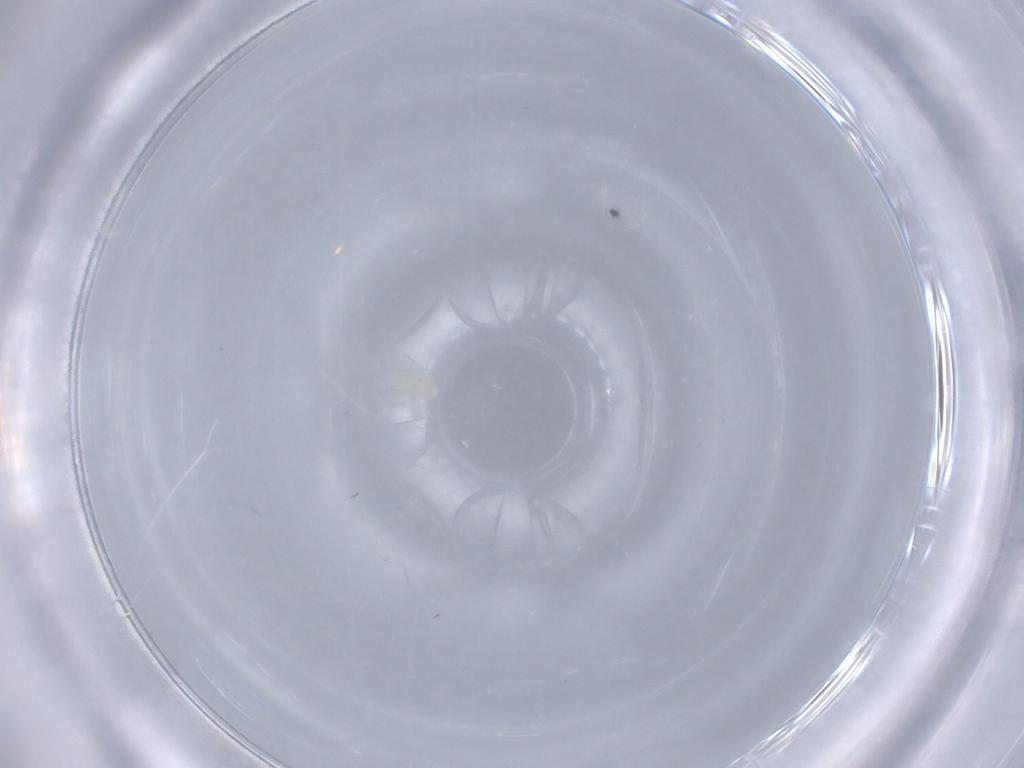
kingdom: Animalia
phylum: Arthropoda
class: Arachnida
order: Trombidiformes
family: Eupodidae
